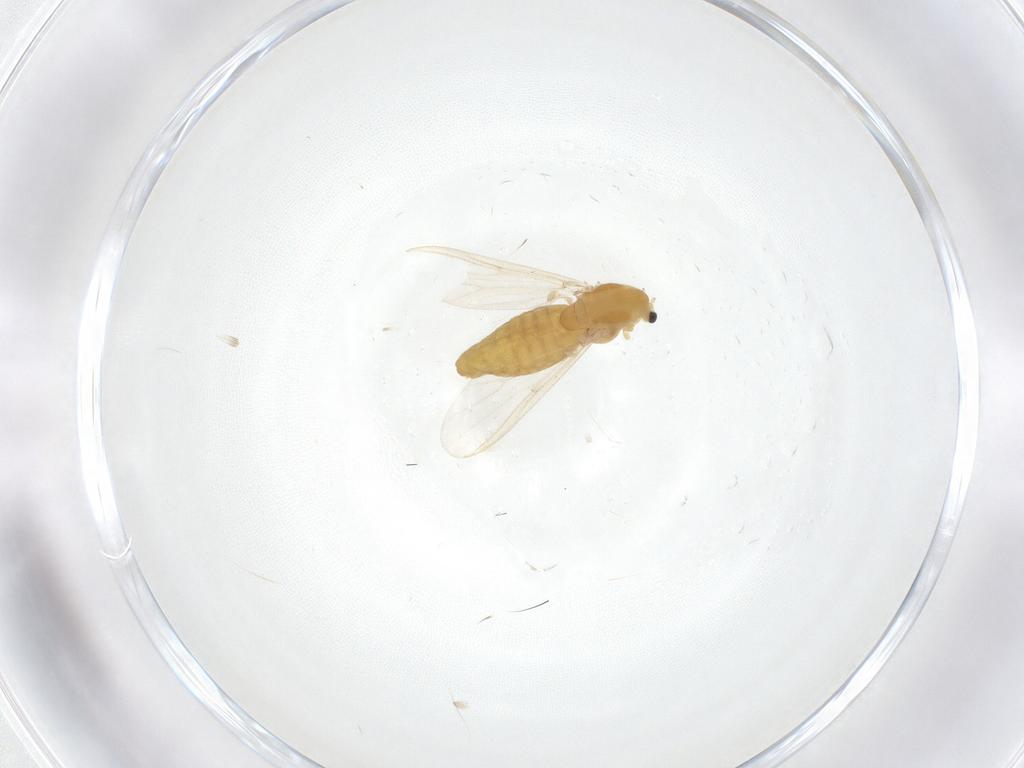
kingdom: Animalia
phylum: Arthropoda
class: Insecta
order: Diptera
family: Chironomidae
